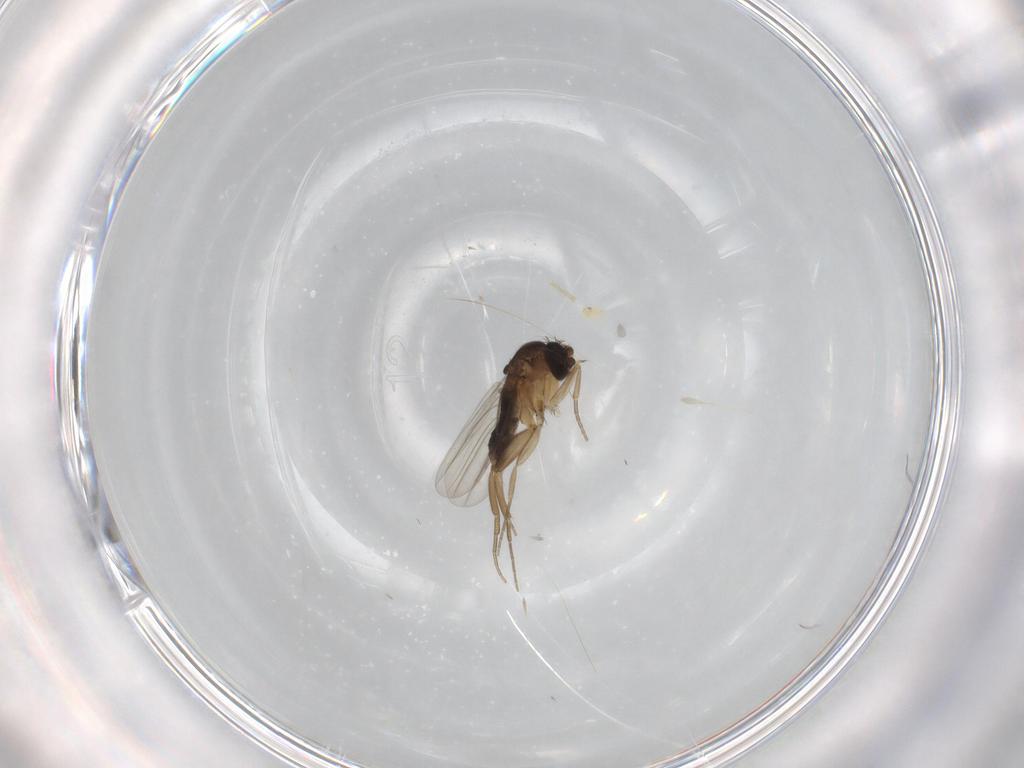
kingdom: Animalia
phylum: Arthropoda
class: Insecta
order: Diptera
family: Phoridae
